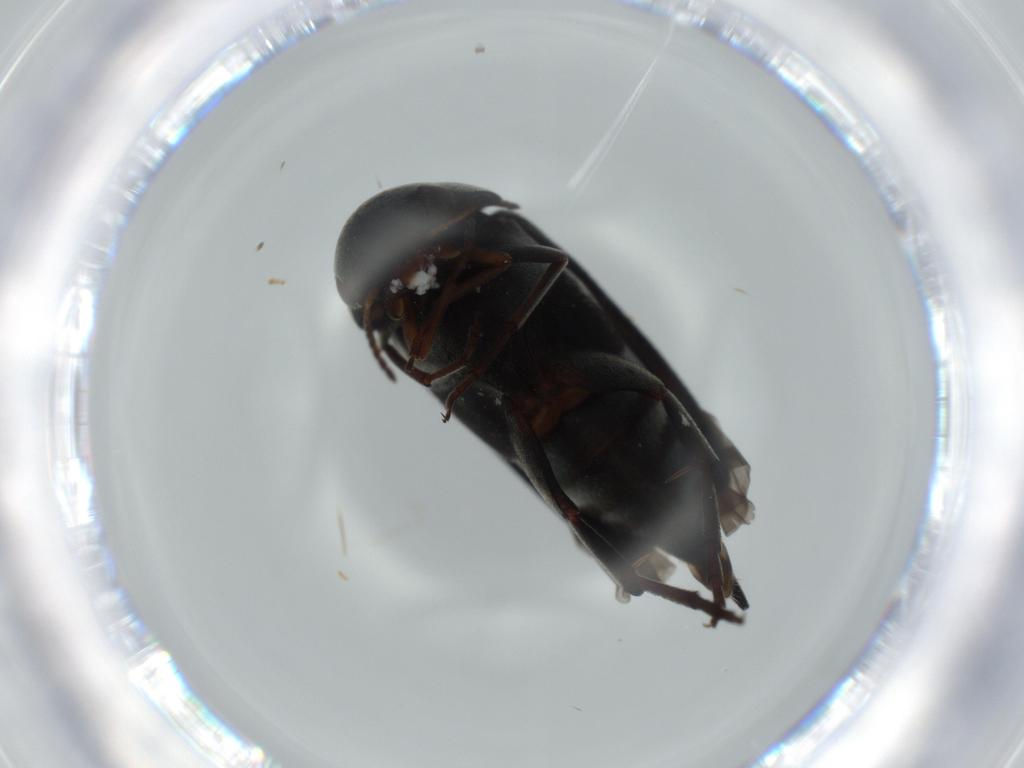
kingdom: Animalia
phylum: Arthropoda
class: Insecta
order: Coleoptera
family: Mordellidae
